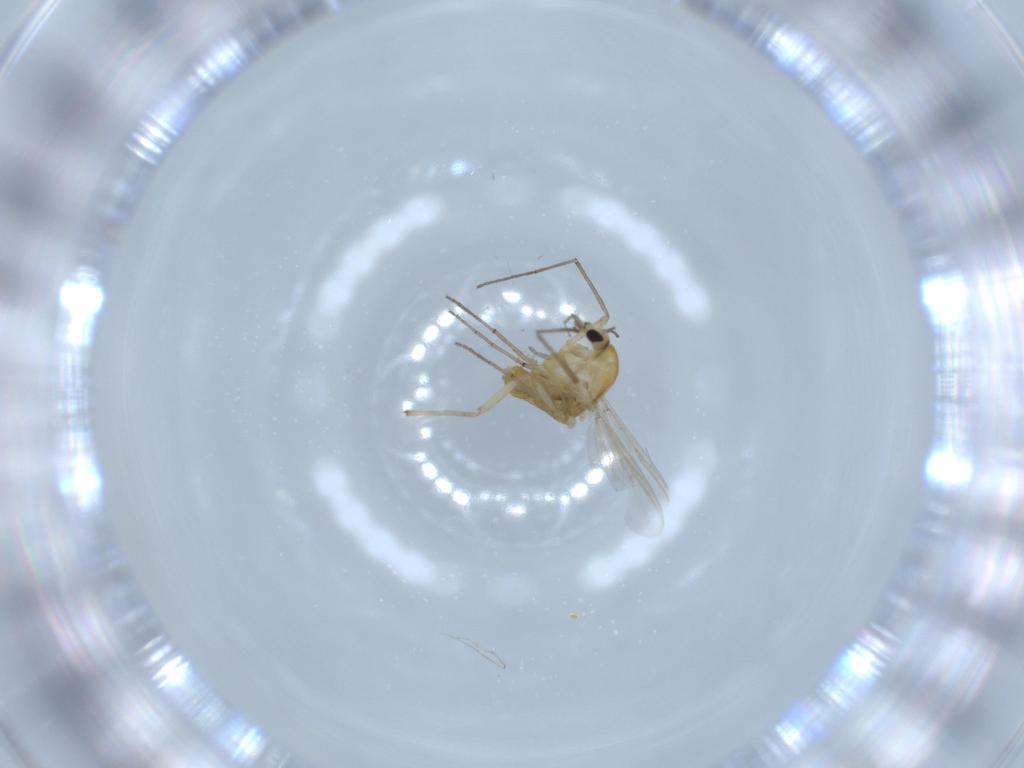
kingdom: Animalia
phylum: Arthropoda
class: Insecta
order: Diptera
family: Chironomidae
